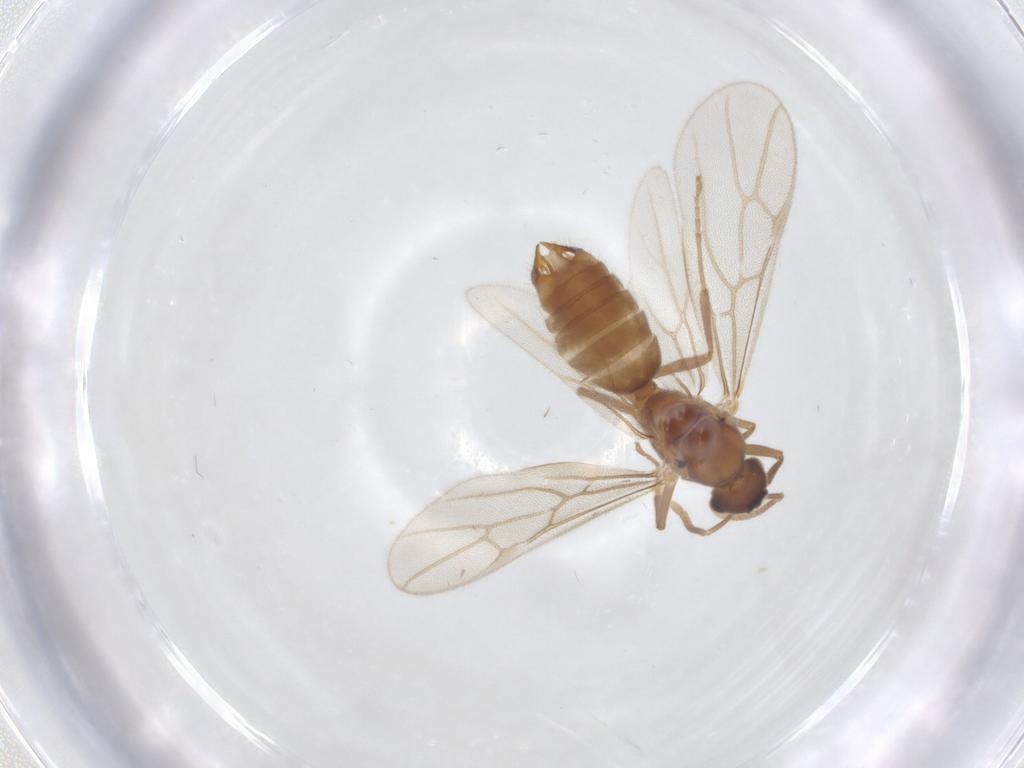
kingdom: Animalia
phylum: Arthropoda
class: Insecta
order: Hymenoptera
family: Formicidae
